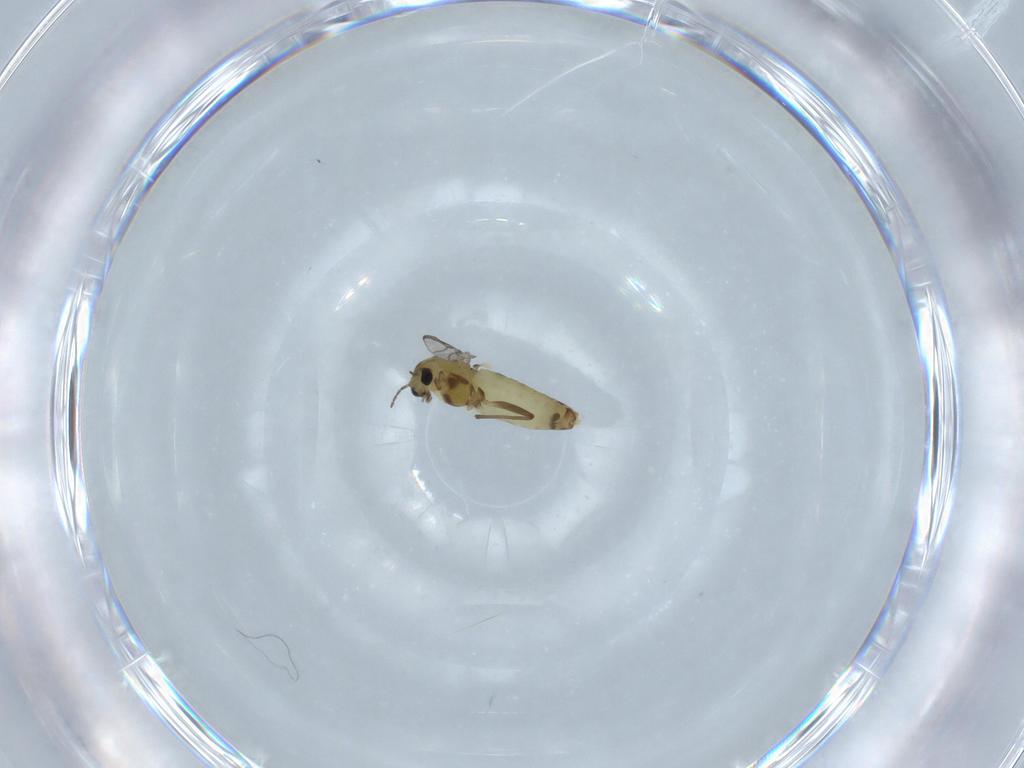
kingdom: Animalia
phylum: Arthropoda
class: Insecta
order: Diptera
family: Chironomidae
